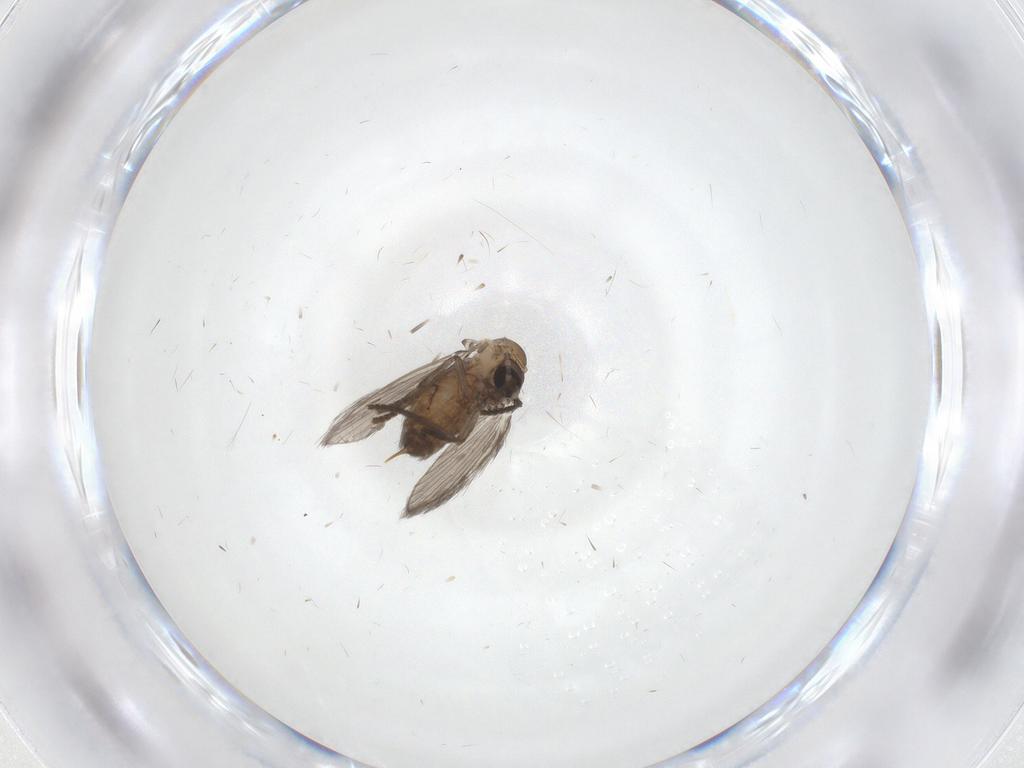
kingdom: Animalia
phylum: Arthropoda
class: Insecta
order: Diptera
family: Psychodidae
